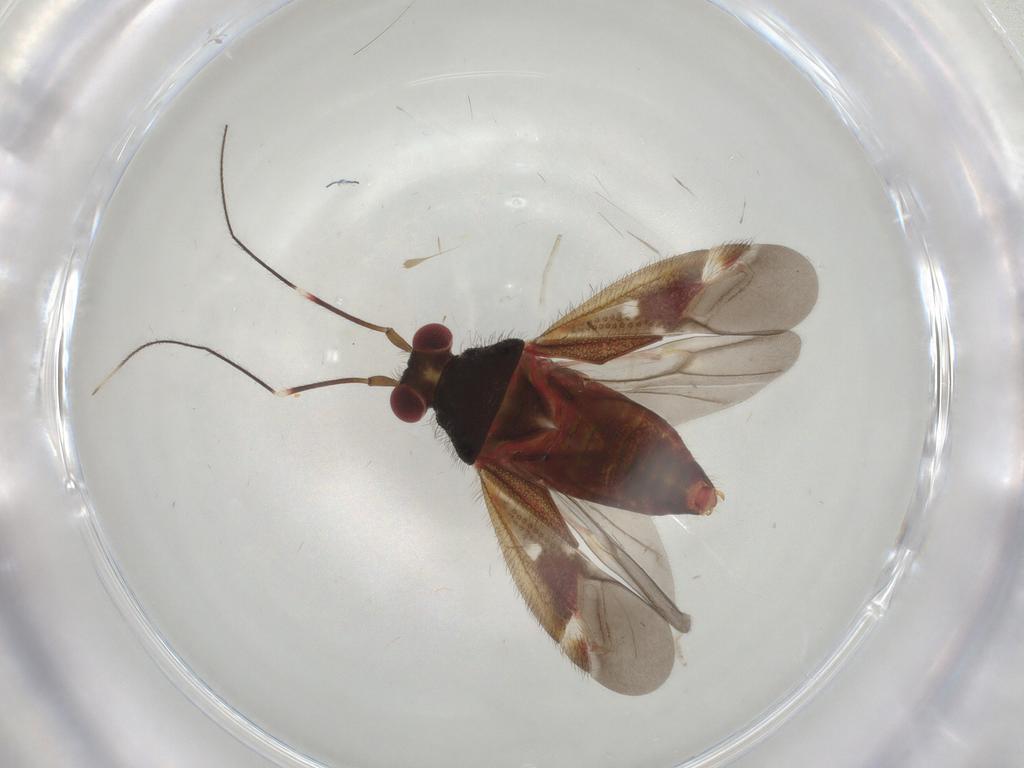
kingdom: Animalia
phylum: Arthropoda
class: Insecta
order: Hemiptera
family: Miridae
